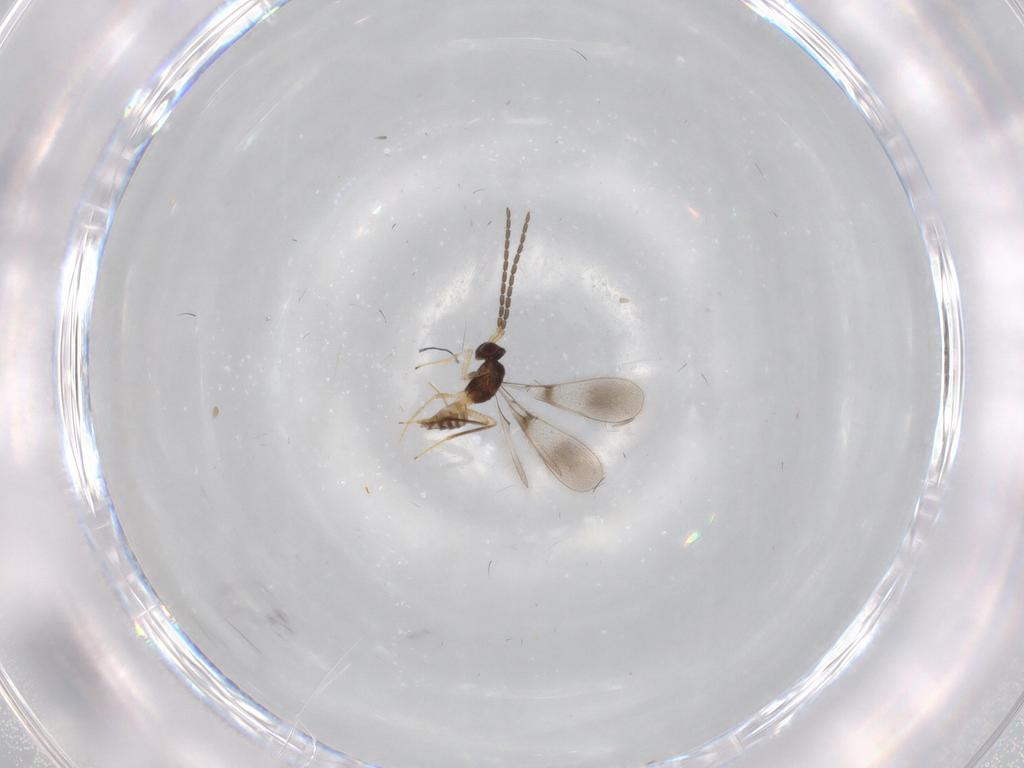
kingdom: Animalia
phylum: Arthropoda
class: Insecta
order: Hymenoptera
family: Mymaridae
